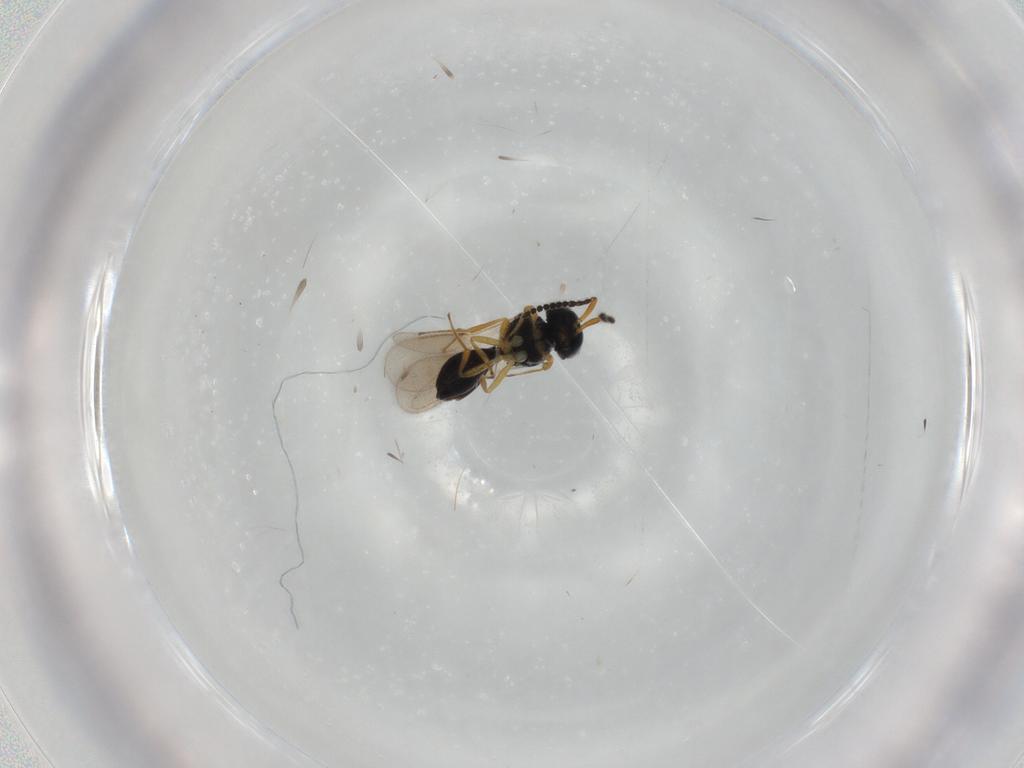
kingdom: Animalia
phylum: Arthropoda
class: Insecta
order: Hymenoptera
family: Scelionidae
